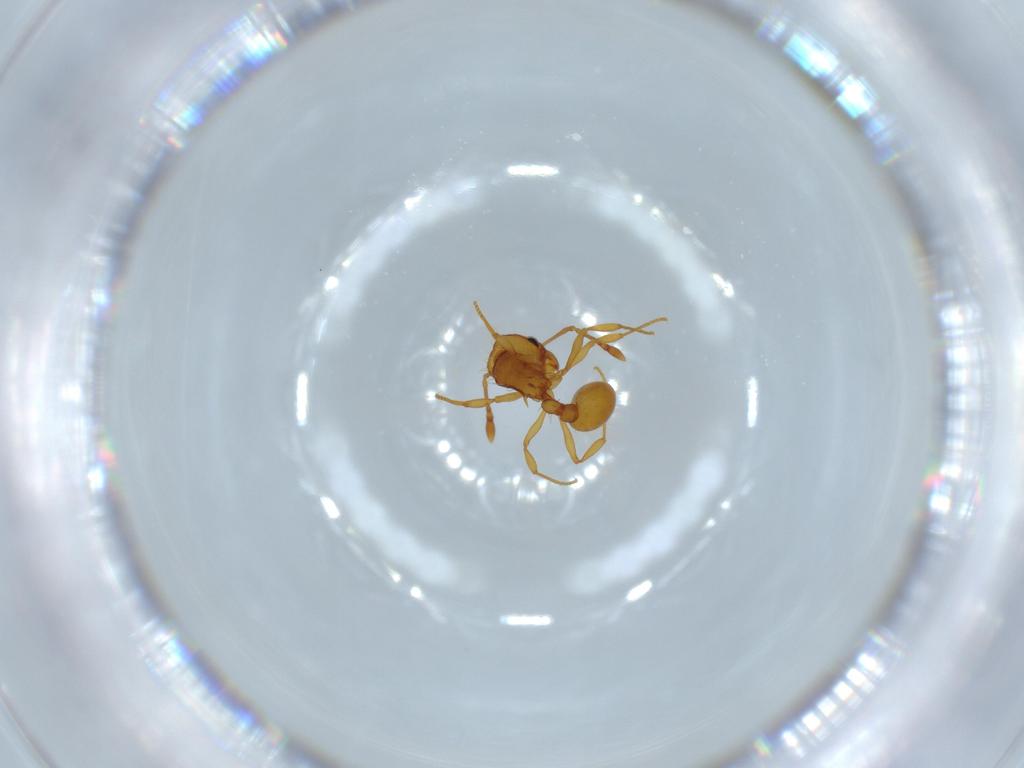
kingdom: Animalia
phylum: Arthropoda
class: Insecta
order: Hymenoptera
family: Formicidae
